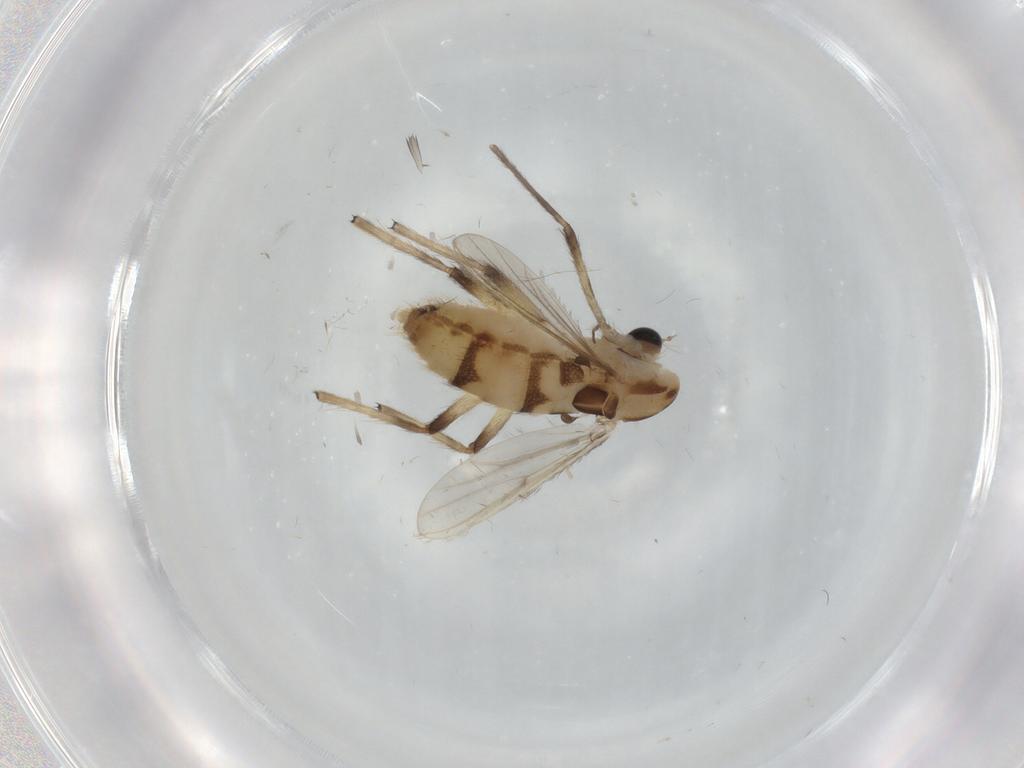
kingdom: Animalia
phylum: Arthropoda
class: Insecta
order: Diptera
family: Chironomidae
